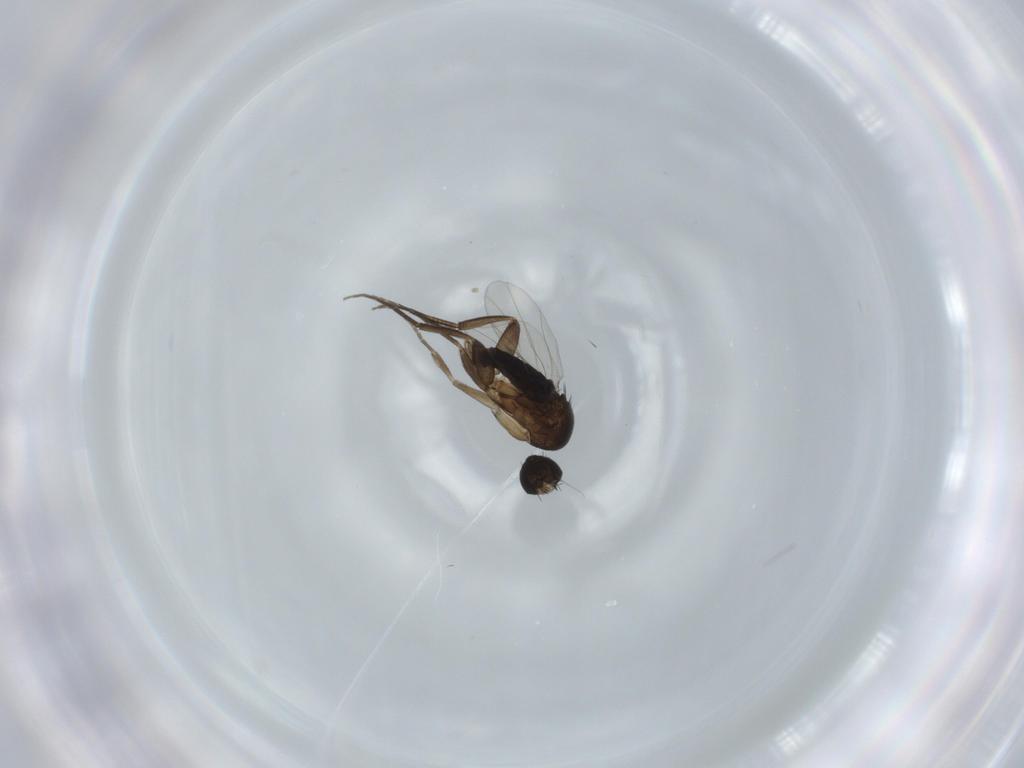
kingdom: Animalia
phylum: Arthropoda
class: Insecta
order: Diptera
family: Phoridae
